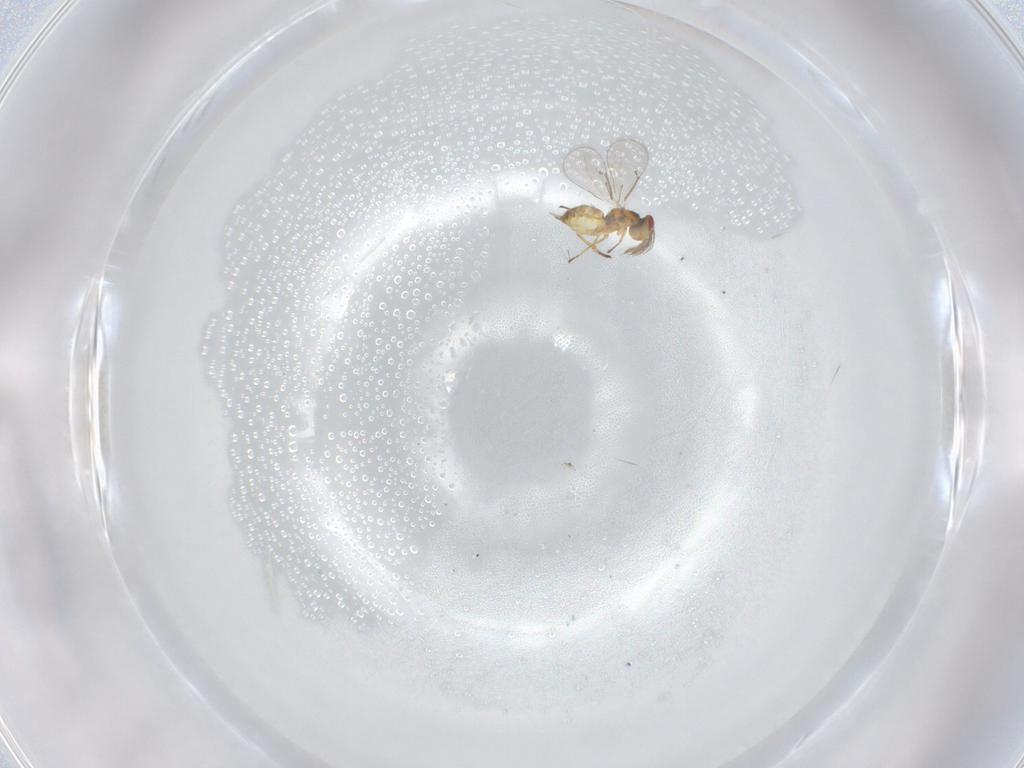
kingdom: Animalia
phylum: Arthropoda
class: Insecta
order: Hymenoptera
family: Eulophidae
